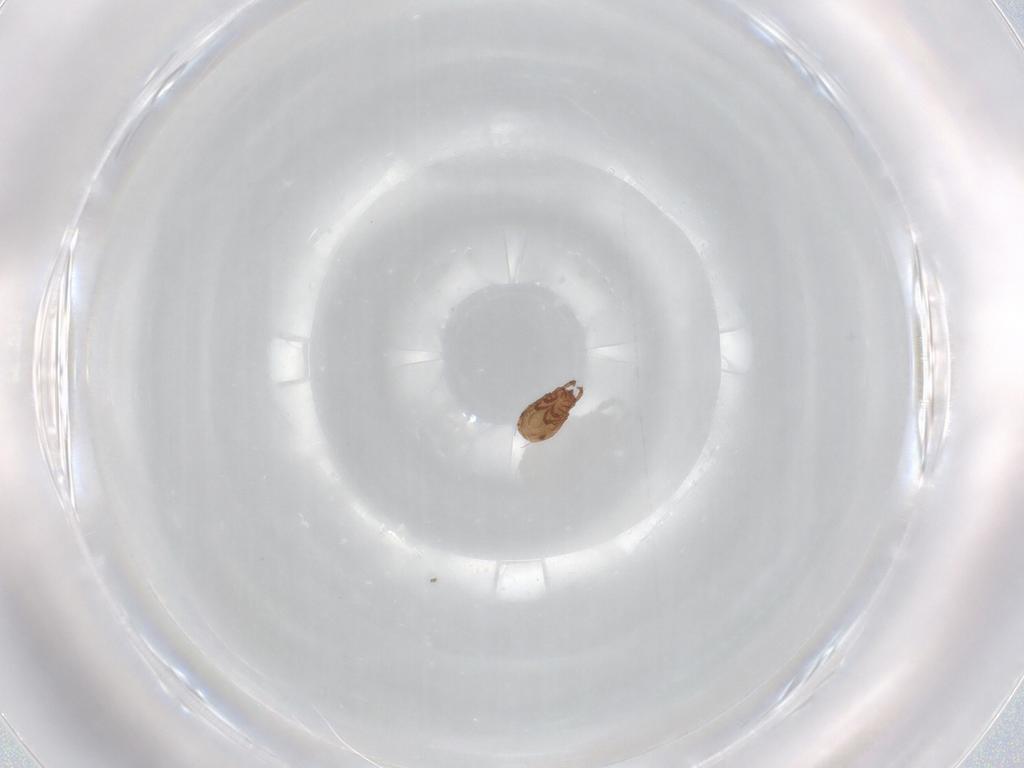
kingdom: Animalia
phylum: Arthropoda
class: Arachnida
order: Sarcoptiformes
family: Phenopelopidae
